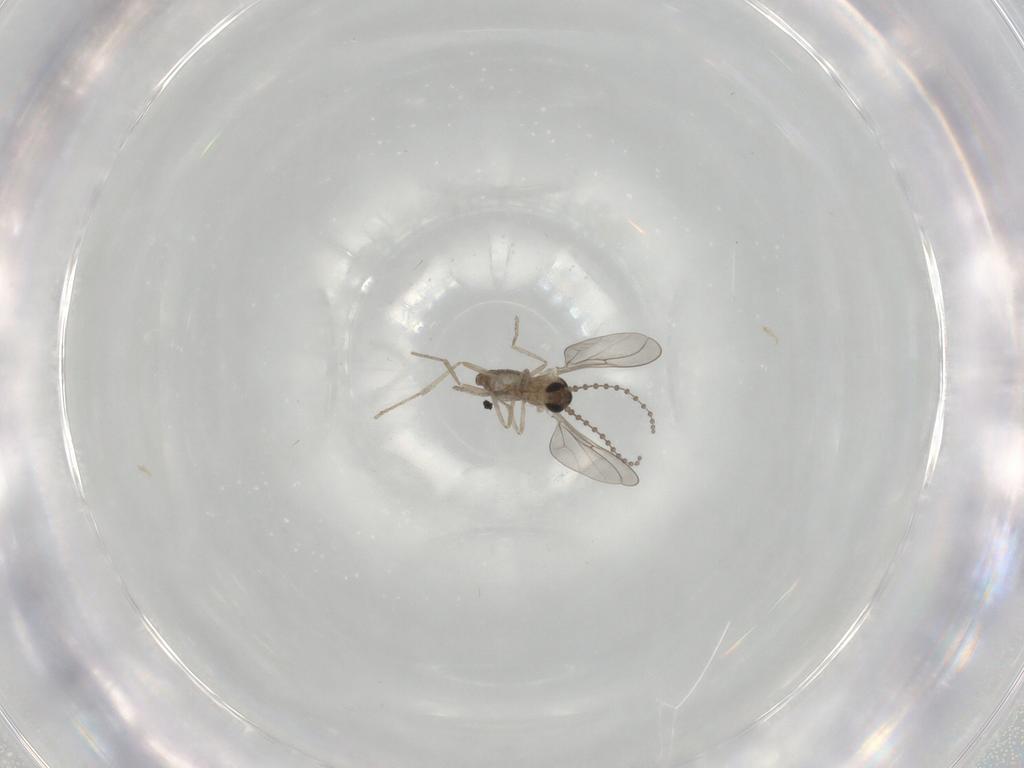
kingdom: Animalia
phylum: Arthropoda
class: Insecta
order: Diptera
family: Cecidomyiidae
